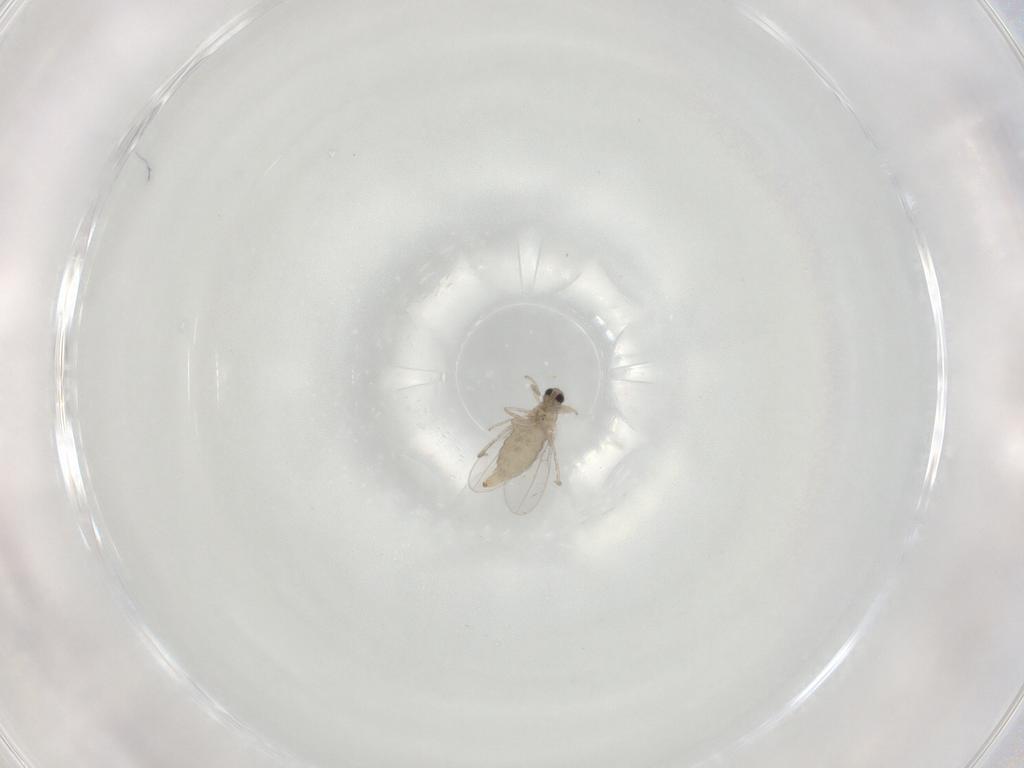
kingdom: Animalia
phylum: Arthropoda
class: Insecta
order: Diptera
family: Cecidomyiidae
